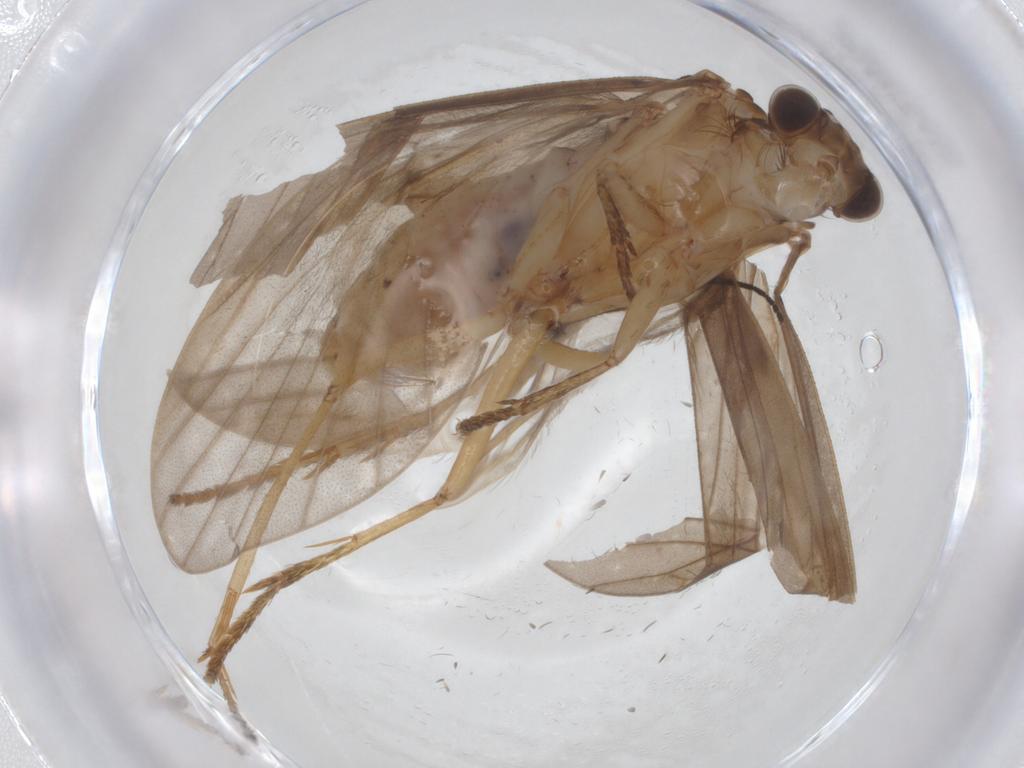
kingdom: Animalia
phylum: Arthropoda
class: Insecta
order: Trichoptera
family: Lepidostomatidae
